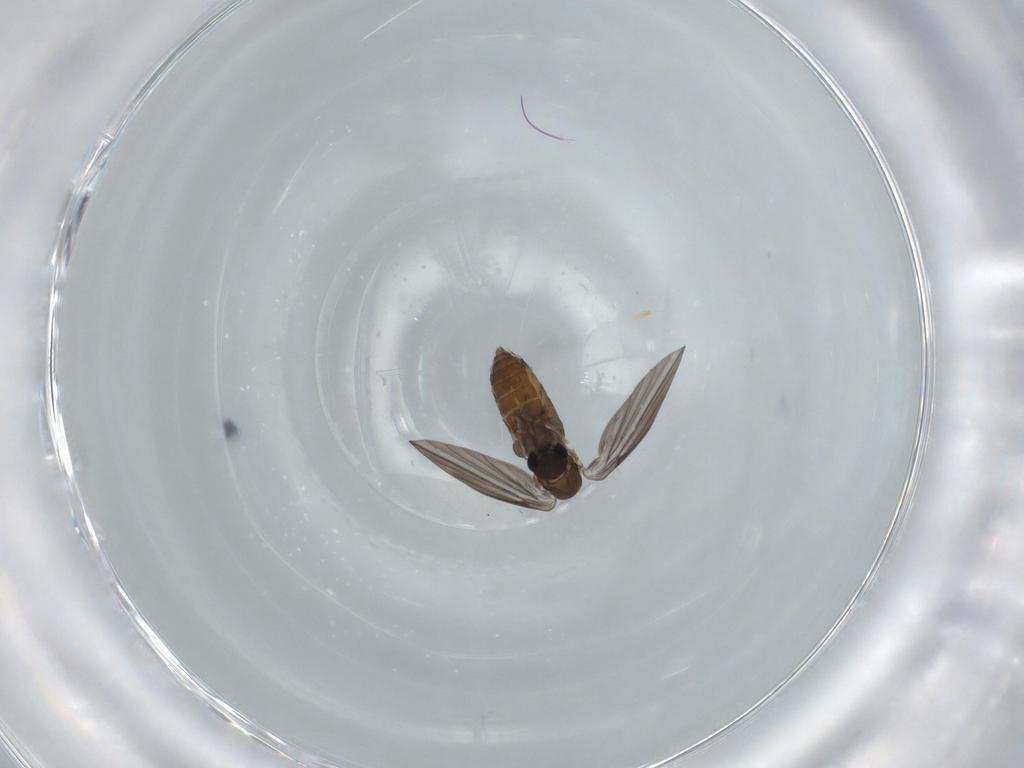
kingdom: Animalia
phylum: Arthropoda
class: Insecta
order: Diptera
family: Psychodidae
